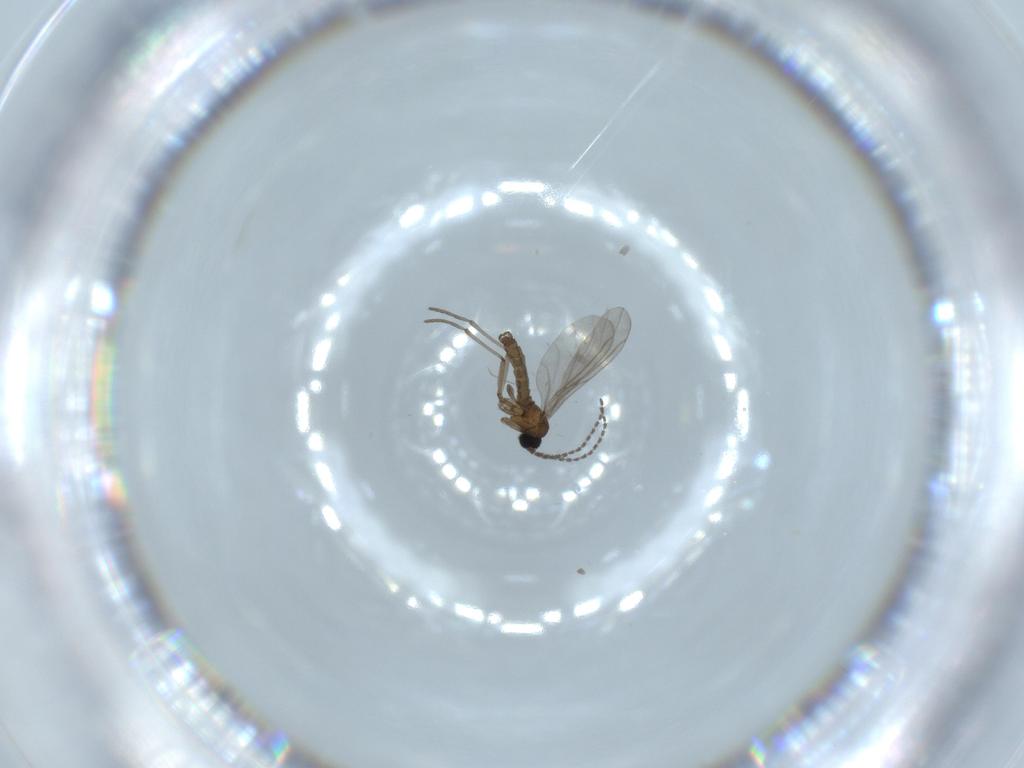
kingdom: Animalia
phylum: Arthropoda
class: Insecta
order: Diptera
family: Sciaridae
